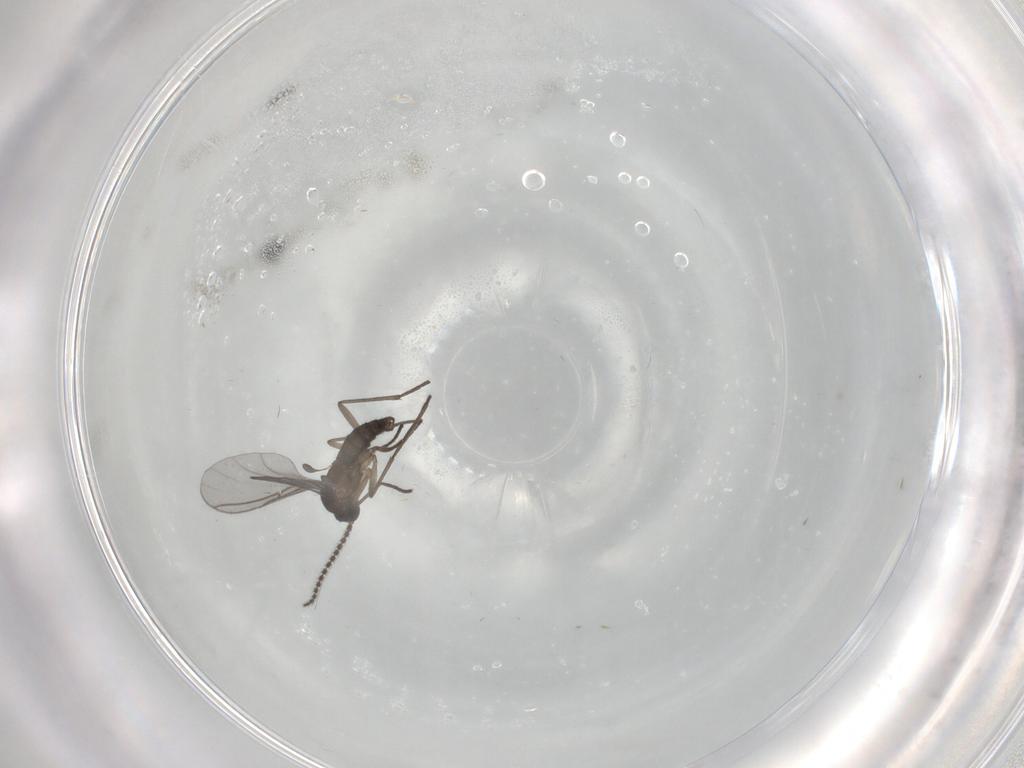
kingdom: Animalia
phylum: Arthropoda
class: Insecta
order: Diptera
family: Sciaridae
